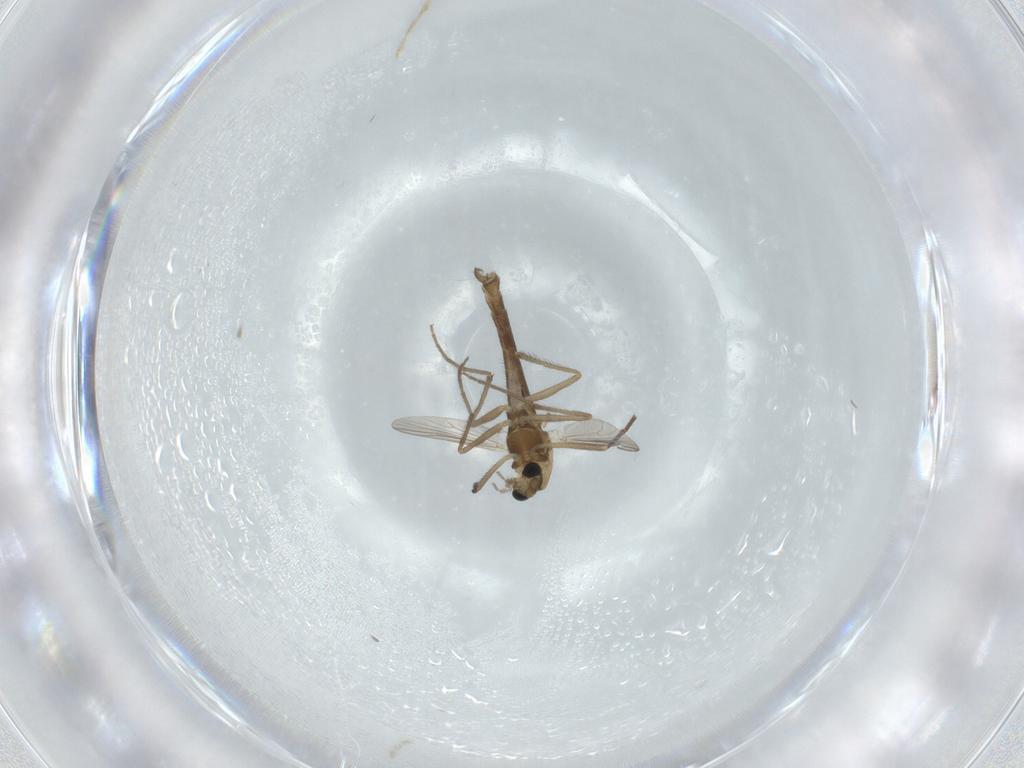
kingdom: Animalia
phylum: Arthropoda
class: Insecta
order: Diptera
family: Chironomidae
